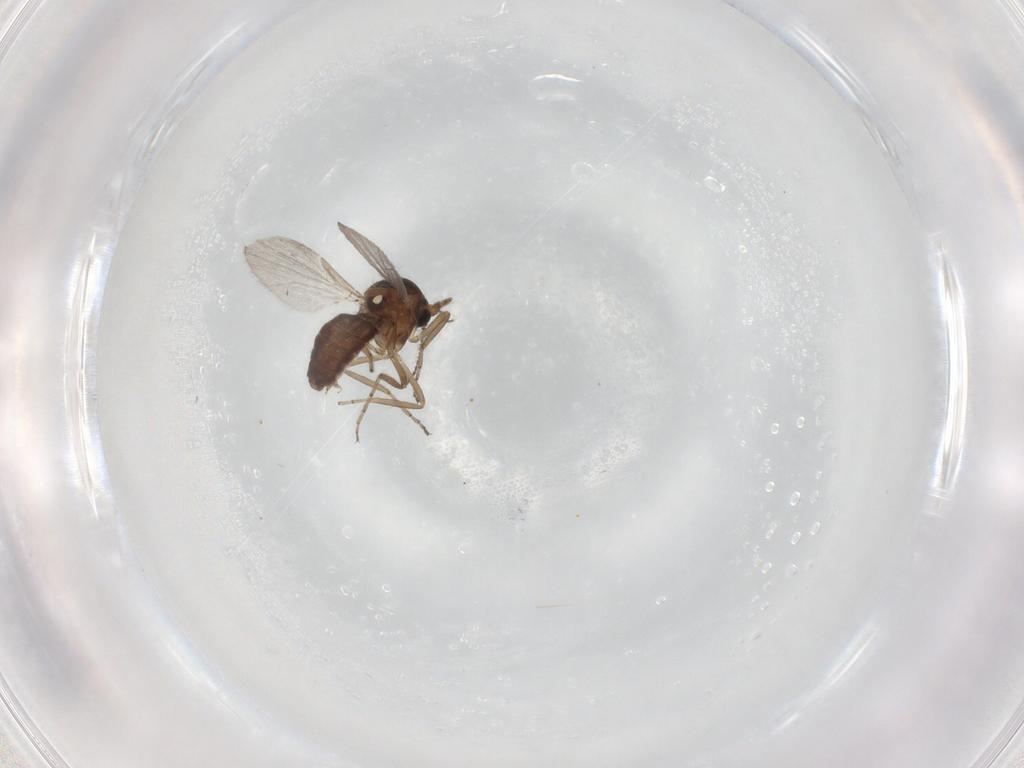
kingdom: Animalia
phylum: Arthropoda
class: Insecta
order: Diptera
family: Ceratopogonidae
